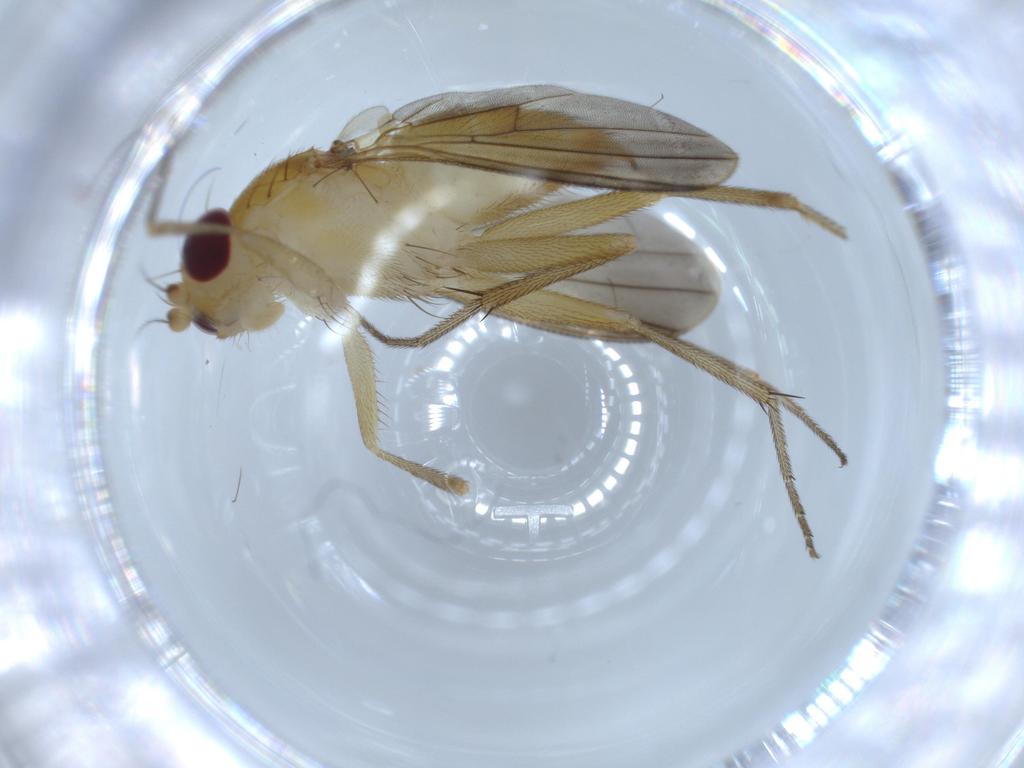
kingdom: Animalia
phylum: Arthropoda
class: Insecta
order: Diptera
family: Clusiidae
